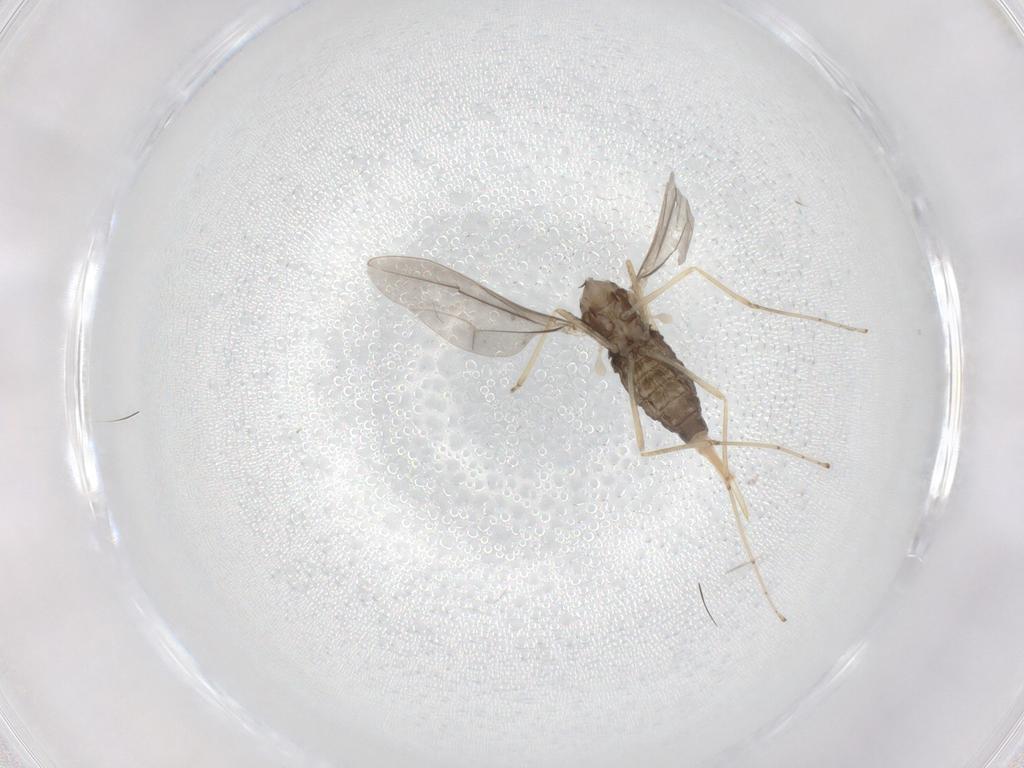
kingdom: Animalia
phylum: Arthropoda
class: Insecta
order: Diptera
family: Cecidomyiidae
